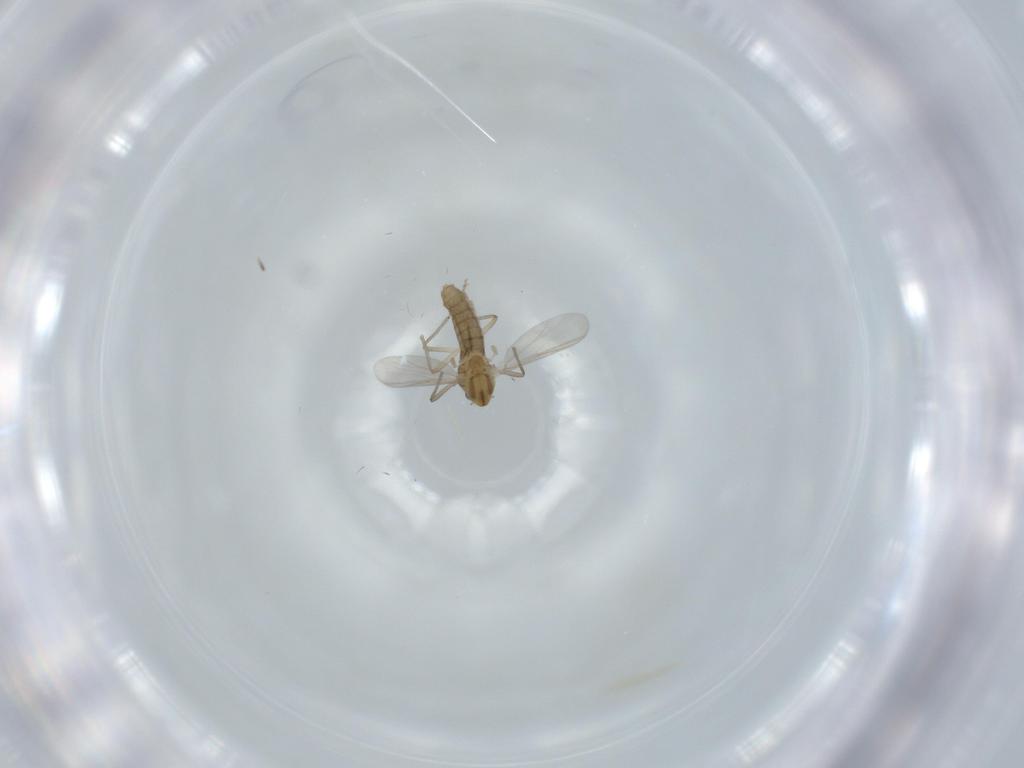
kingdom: Animalia
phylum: Arthropoda
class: Insecta
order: Diptera
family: Chironomidae
